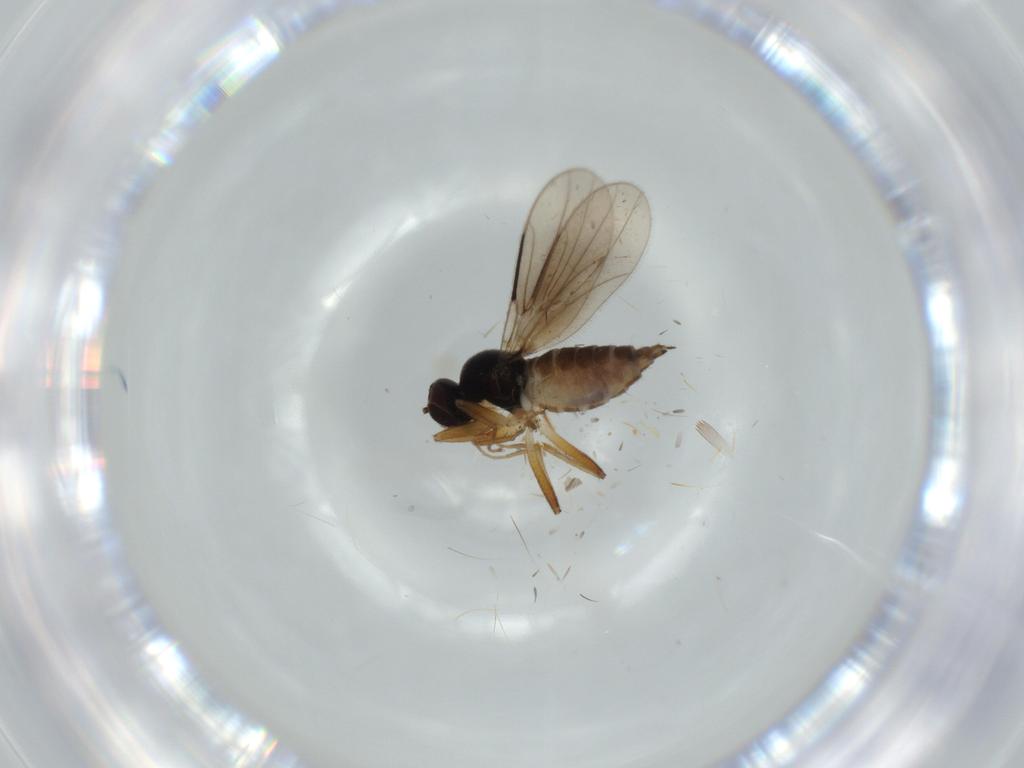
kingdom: Animalia
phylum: Arthropoda
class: Insecta
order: Diptera
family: Hybotidae
